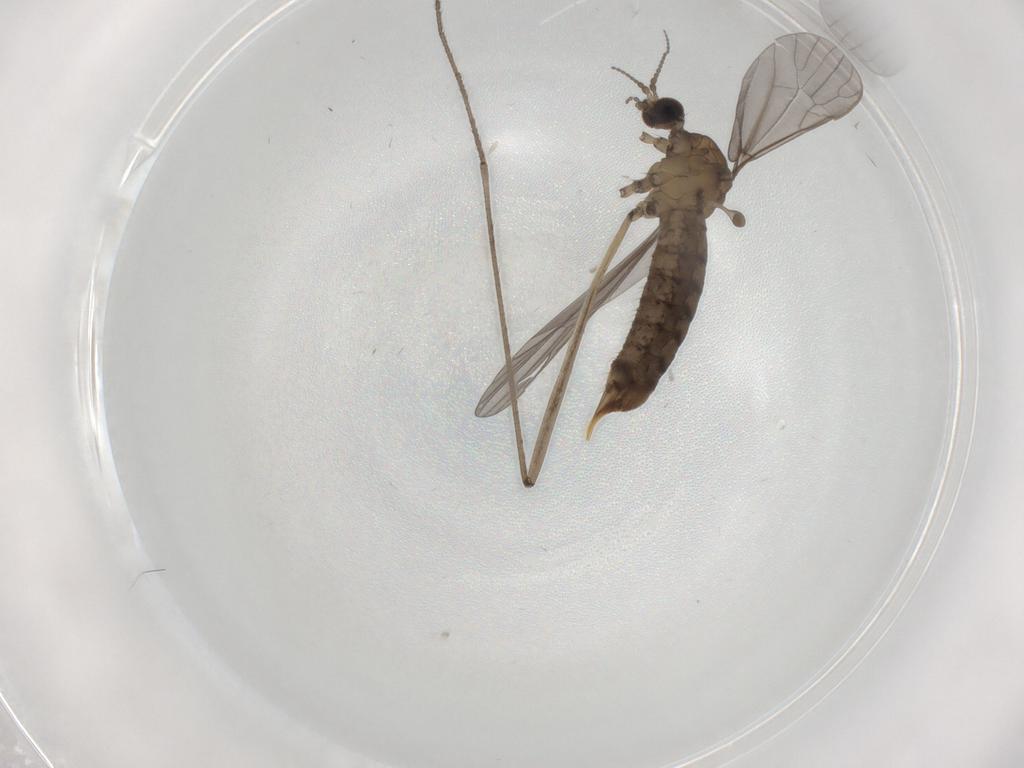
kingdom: Animalia
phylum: Arthropoda
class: Insecta
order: Diptera
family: Limoniidae
